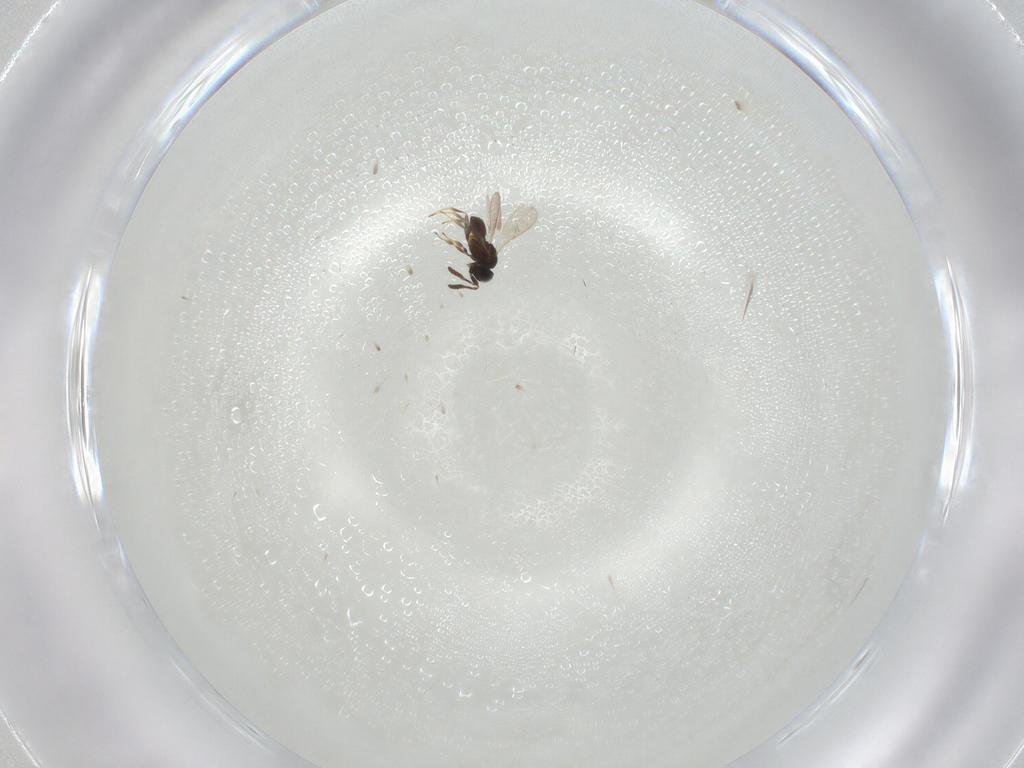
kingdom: Animalia
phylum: Arthropoda
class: Insecta
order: Hymenoptera
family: Scelionidae
